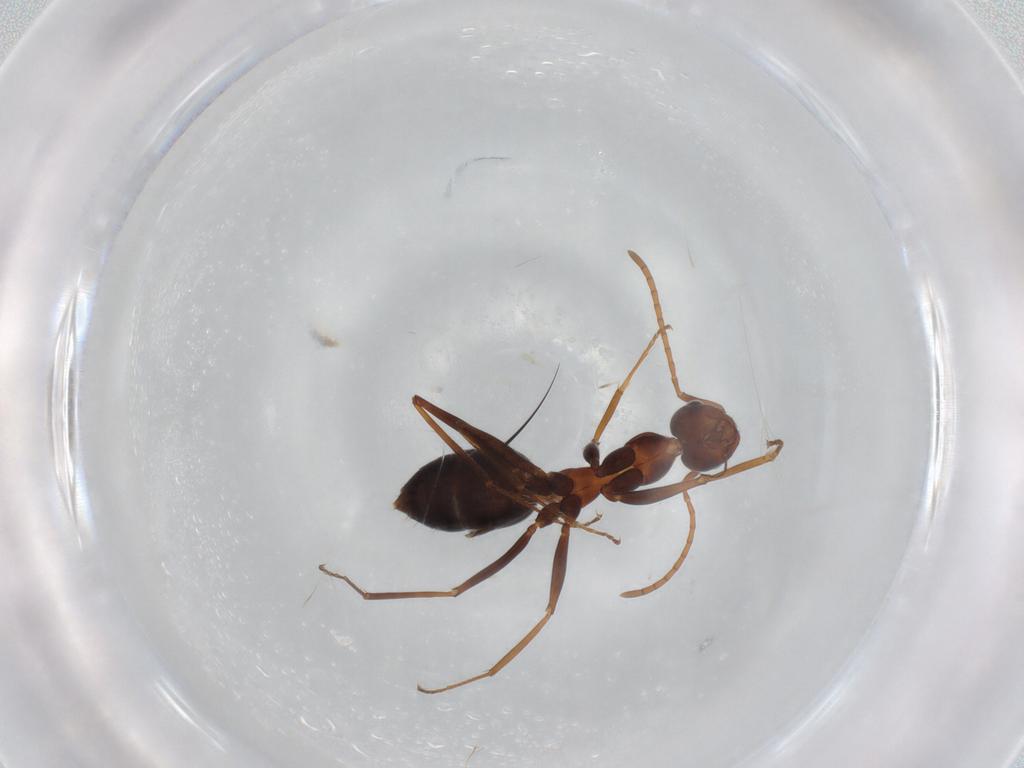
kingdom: Animalia
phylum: Arthropoda
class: Insecta
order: Hymenoptera
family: Formicidae
